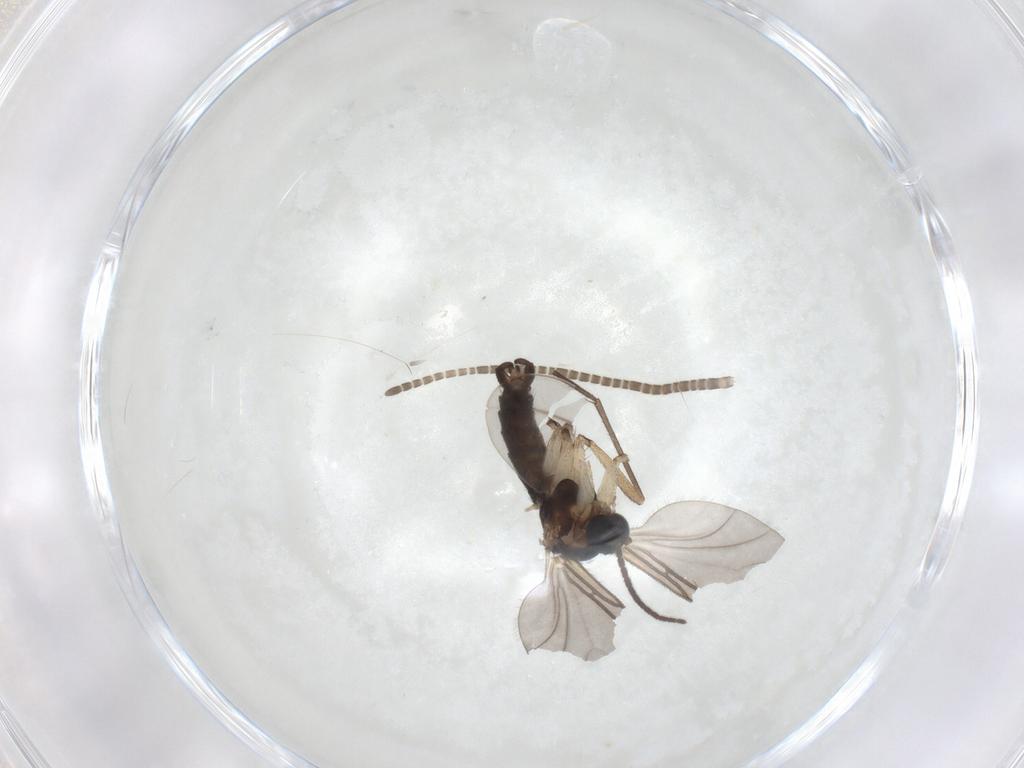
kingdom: Animalia
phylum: Arthropoda
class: Insecta
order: Diptera
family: Sciaridae
